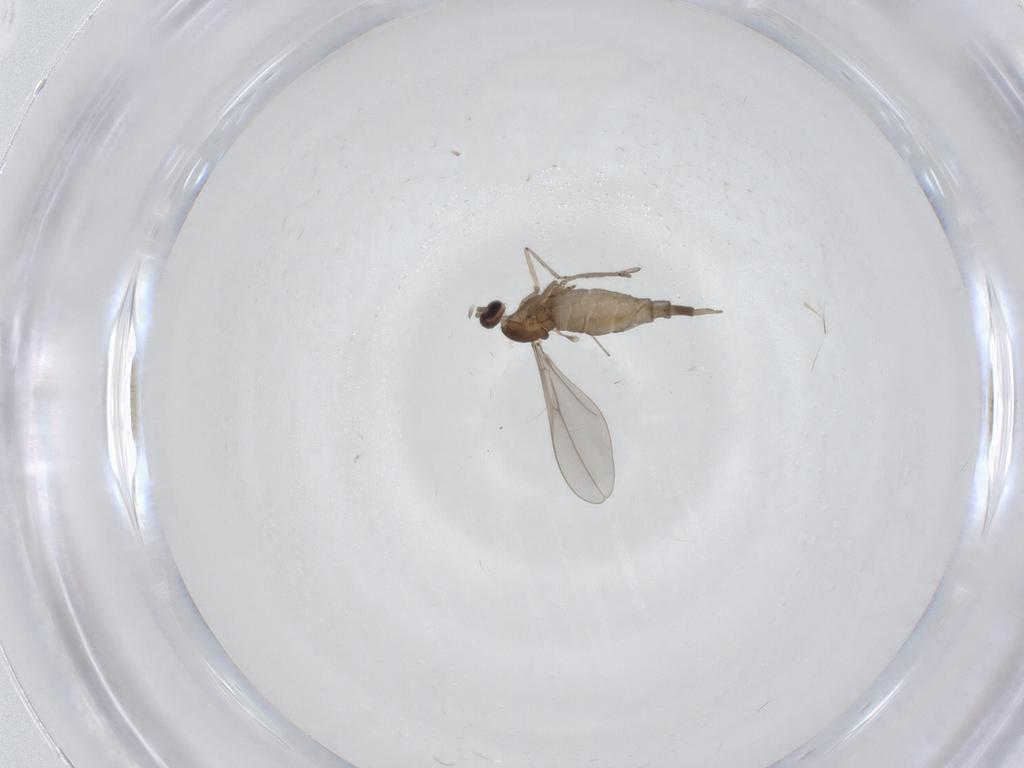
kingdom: Animalia
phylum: Arthropoda
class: Insecta
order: Diptera
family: Cecidomyiidae
